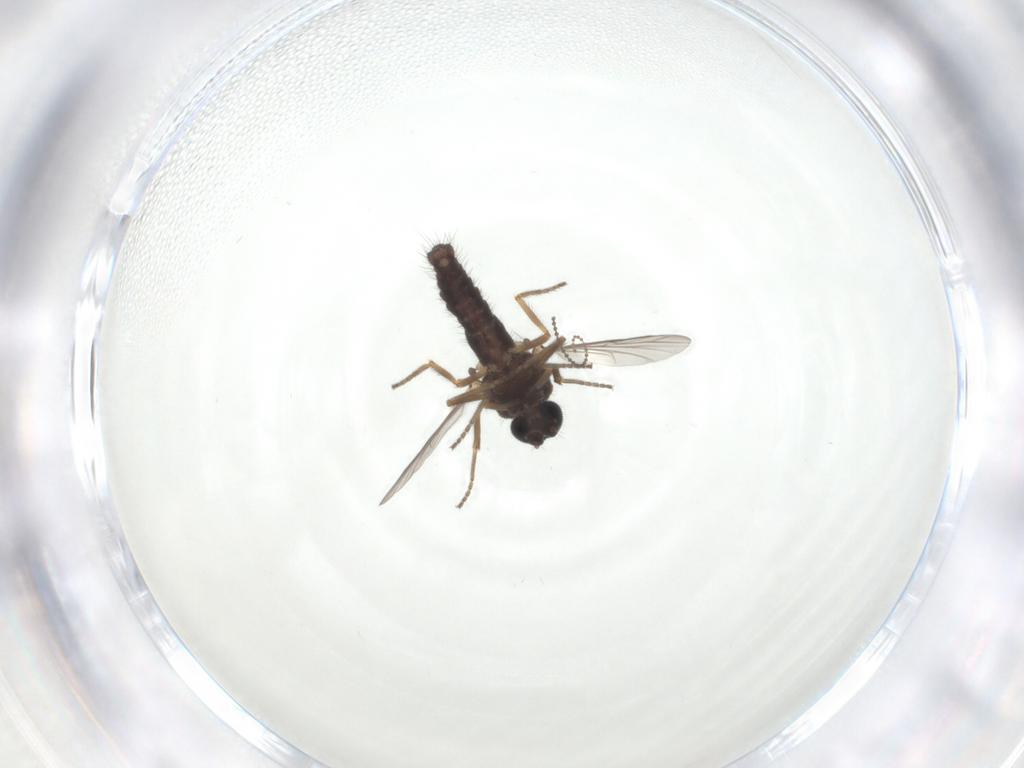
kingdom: Animalia
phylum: Arthropoda
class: Insecta
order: Diptera
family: Ceratopogonidae
